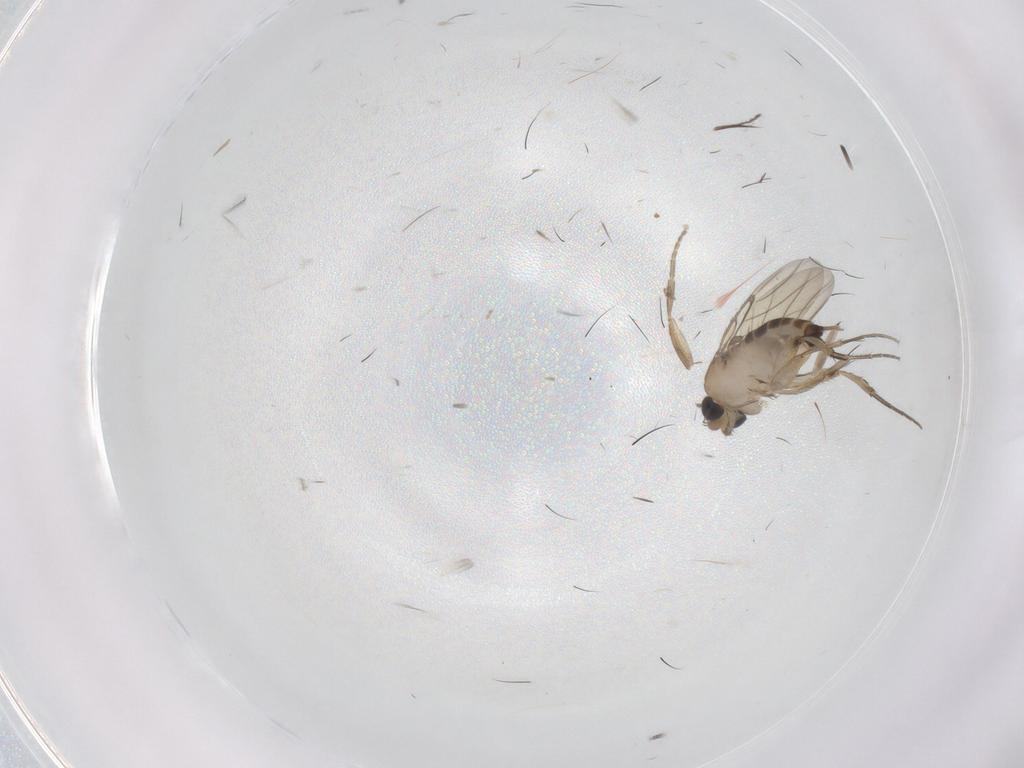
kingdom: Animalia
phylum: Arthropoda
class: Insecta
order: Diptera
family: Phoridae
